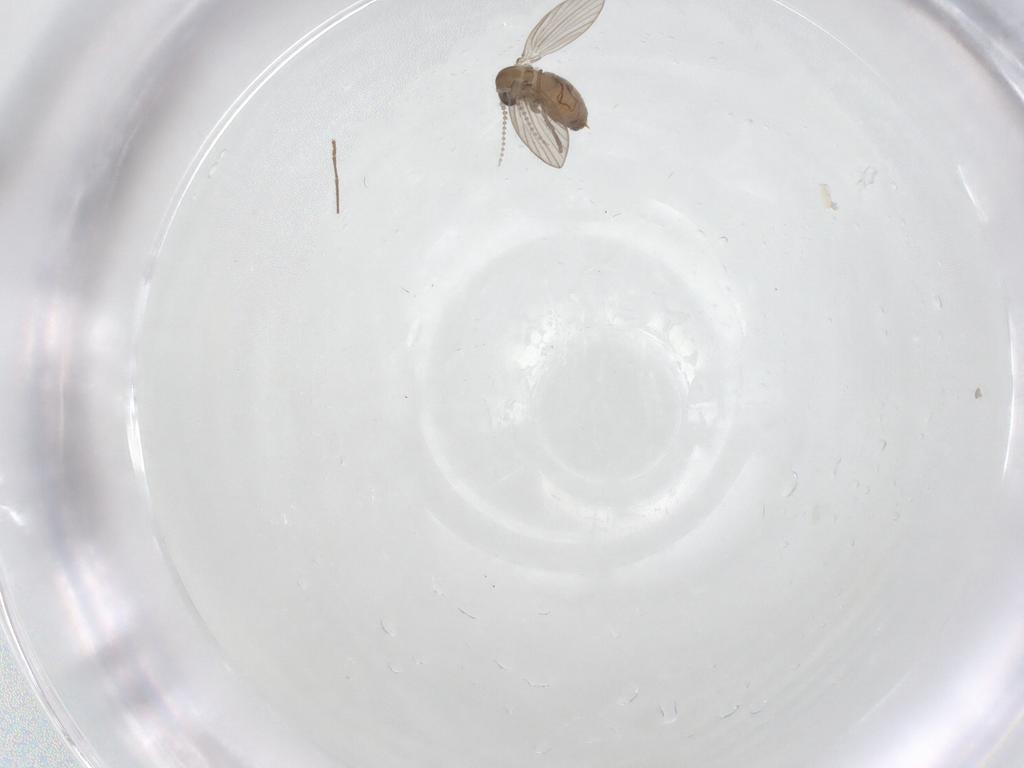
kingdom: Animalia
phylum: Arthropoda
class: Insecta
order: Diptera
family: Psychodidae
